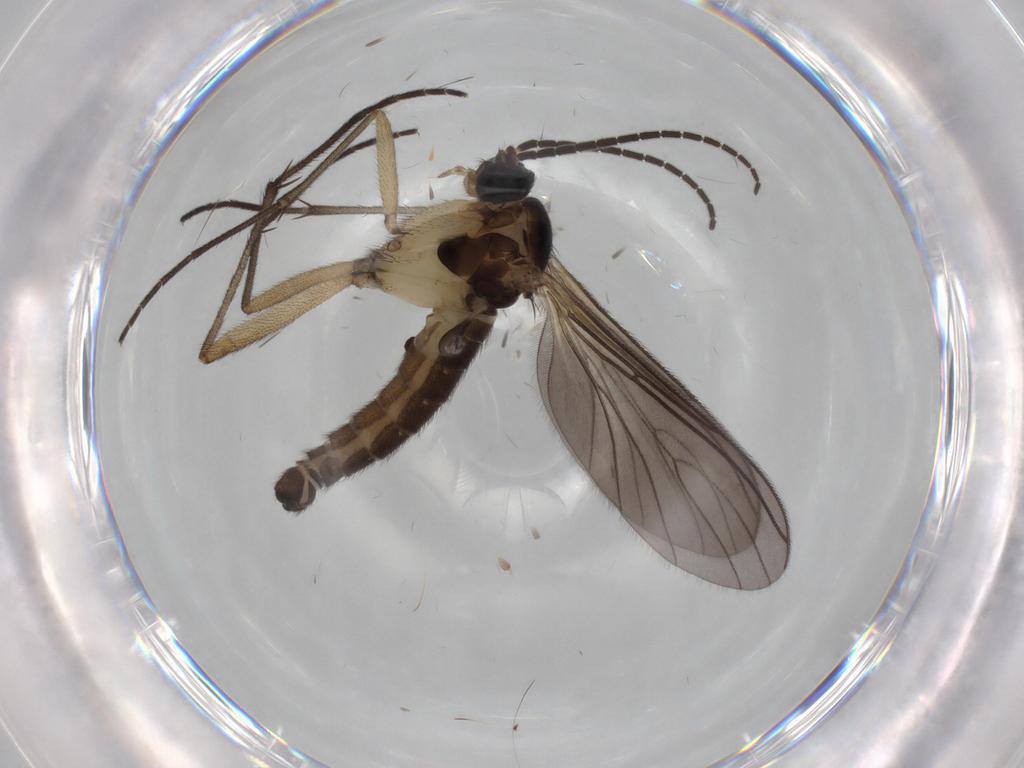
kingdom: Animalia
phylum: Arthropoda
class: Insecta
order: Diptera
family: Sciaridae
